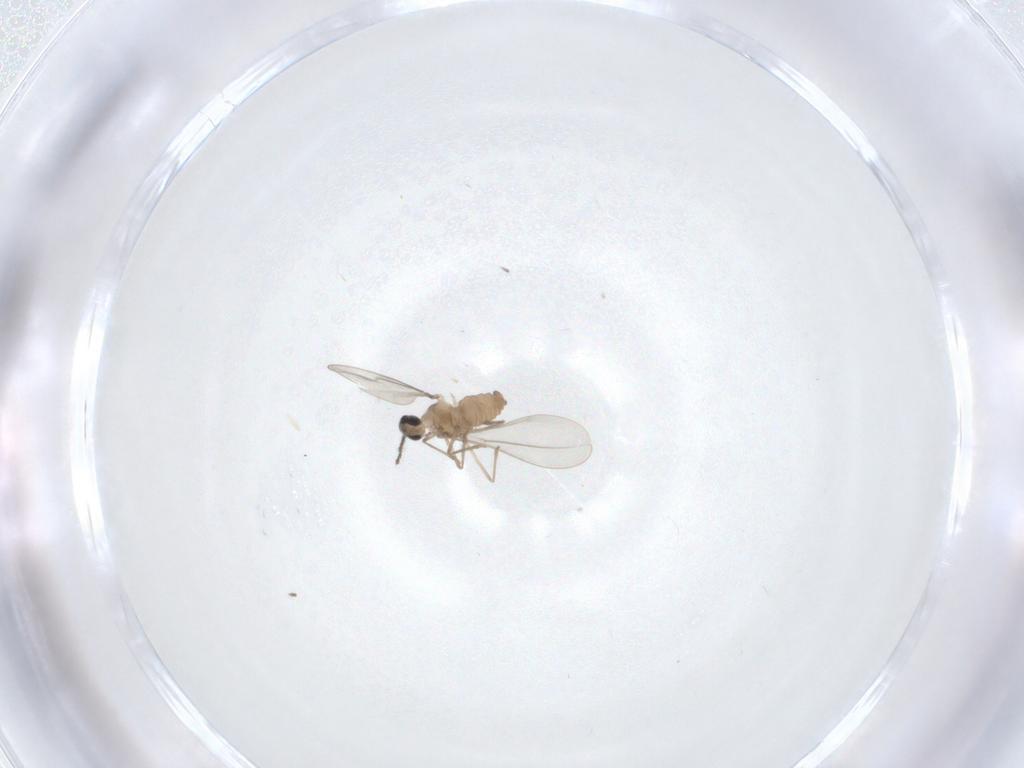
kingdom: Animalia
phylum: Arthropoda
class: Insecta
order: Diptera
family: Cecidomyiidae
